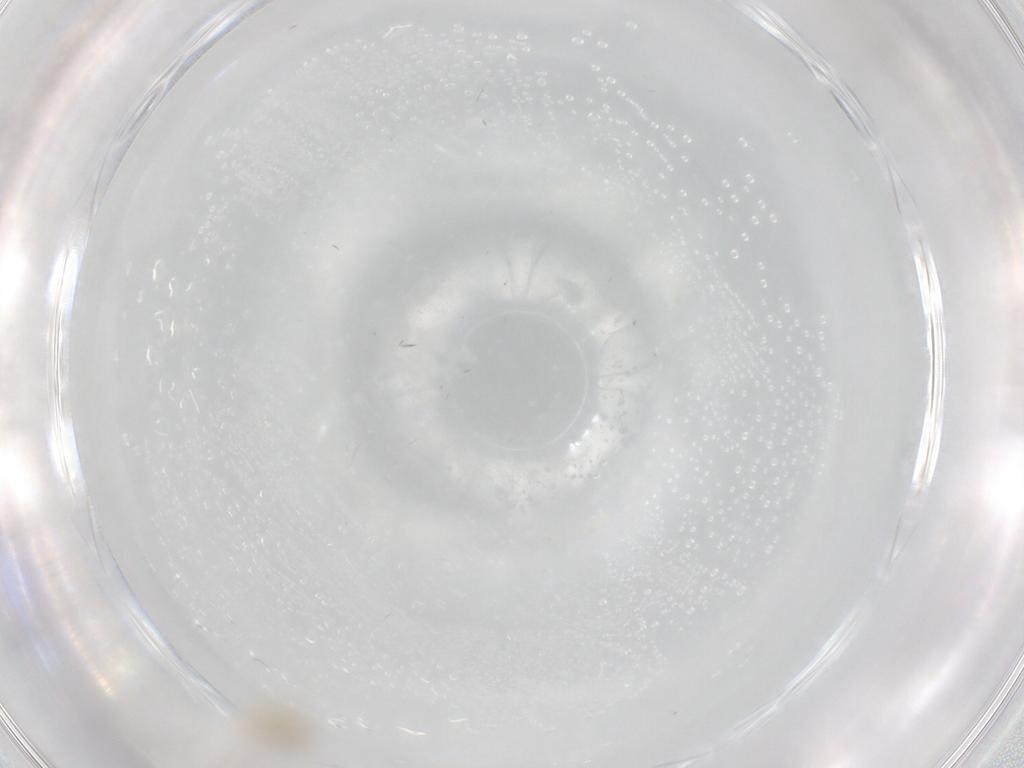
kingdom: Animalia
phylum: Arthropoda
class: Insecta
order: Diptera
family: Cecidomyiidae
